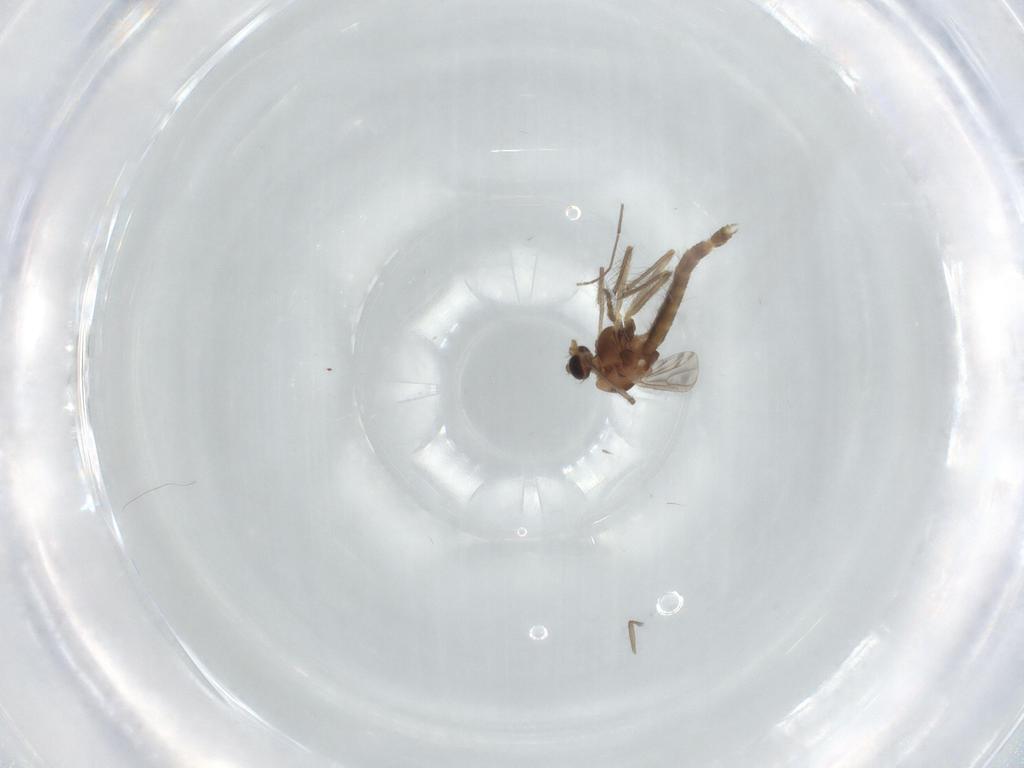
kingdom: Animalia
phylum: Arthropoda
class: Insecta
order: Diptera
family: Chironomidae
